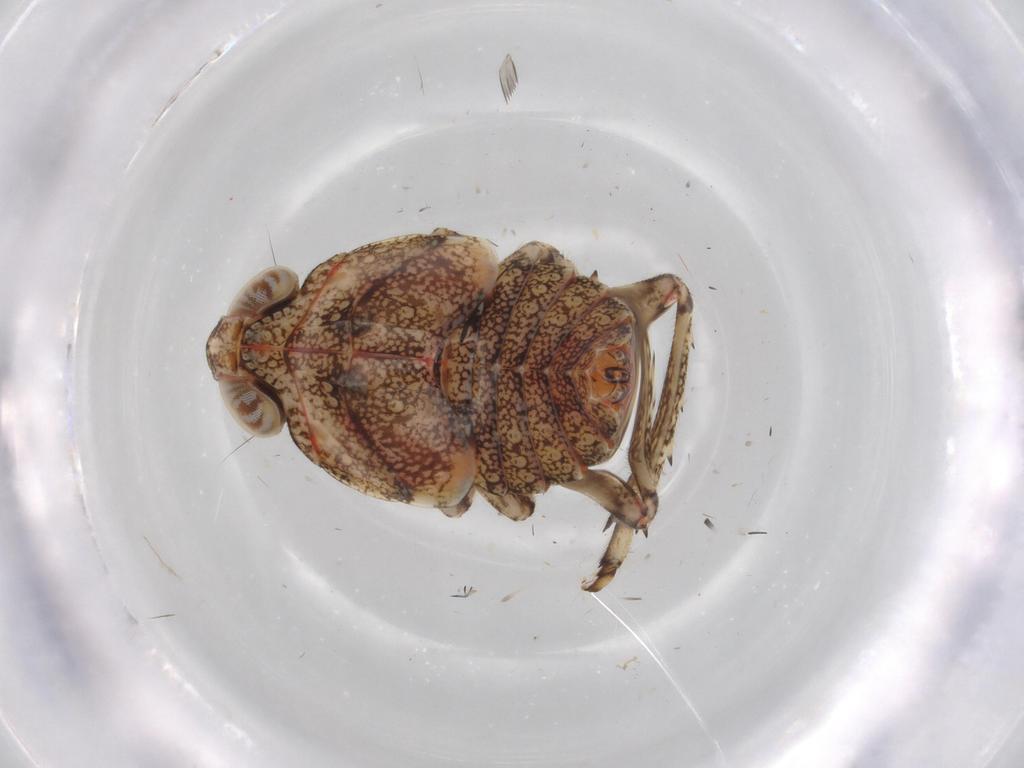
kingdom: Animalia
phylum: Arthropoda
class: Insecta
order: Hemiptera
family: Issidae
